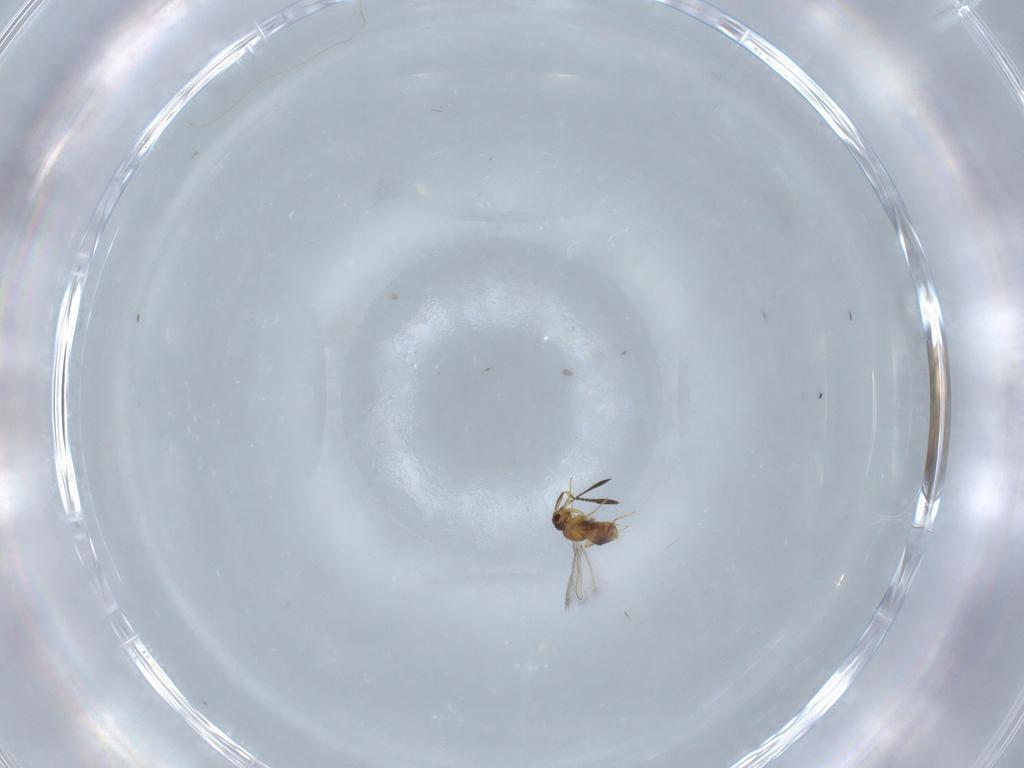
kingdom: Animalia
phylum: Arthropoda
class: Insecta
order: Hymenoptera
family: Mymaridae
